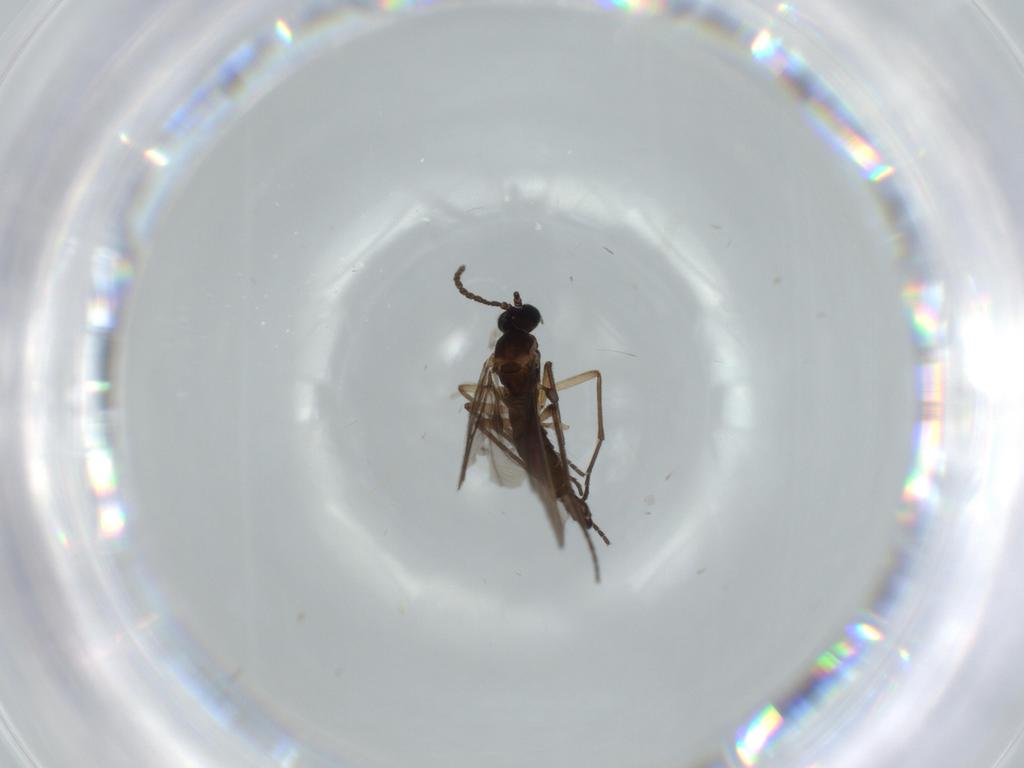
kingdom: Animalia
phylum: Arthropoda
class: Insecta
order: Diptera
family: Sciaridae
